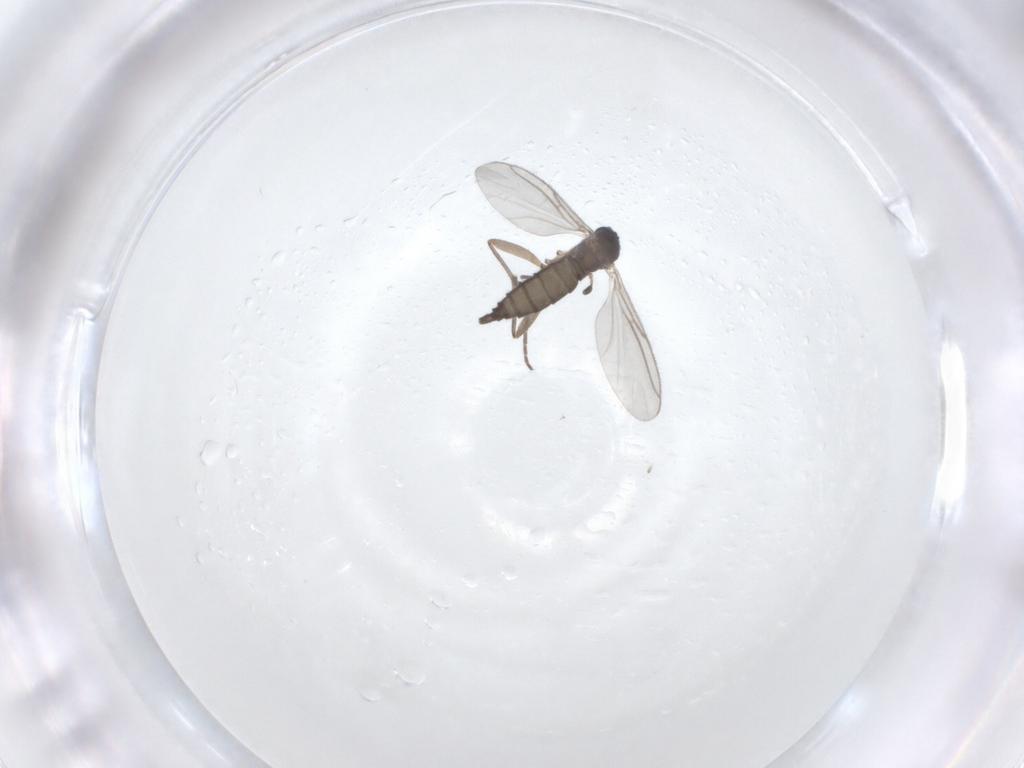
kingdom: Animalia
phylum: Arthropoda
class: Insecta
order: Diptera
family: Sciaridae
